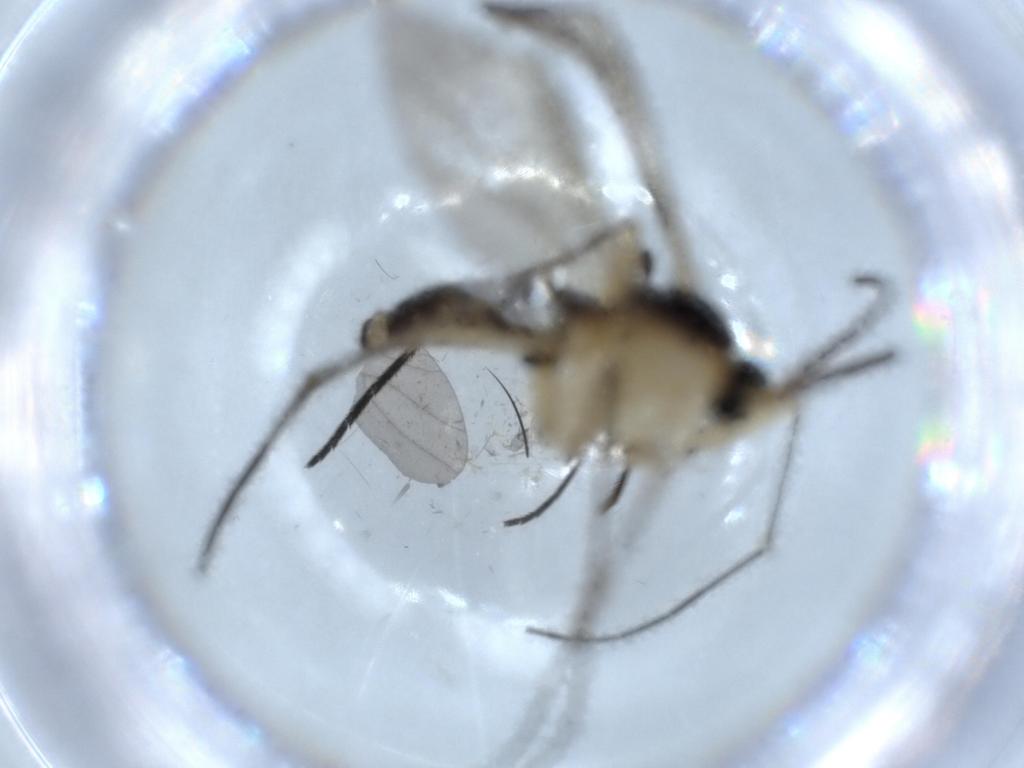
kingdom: Animalia
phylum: Arthropoda
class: Insecta
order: Diptera
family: Sciaridae
